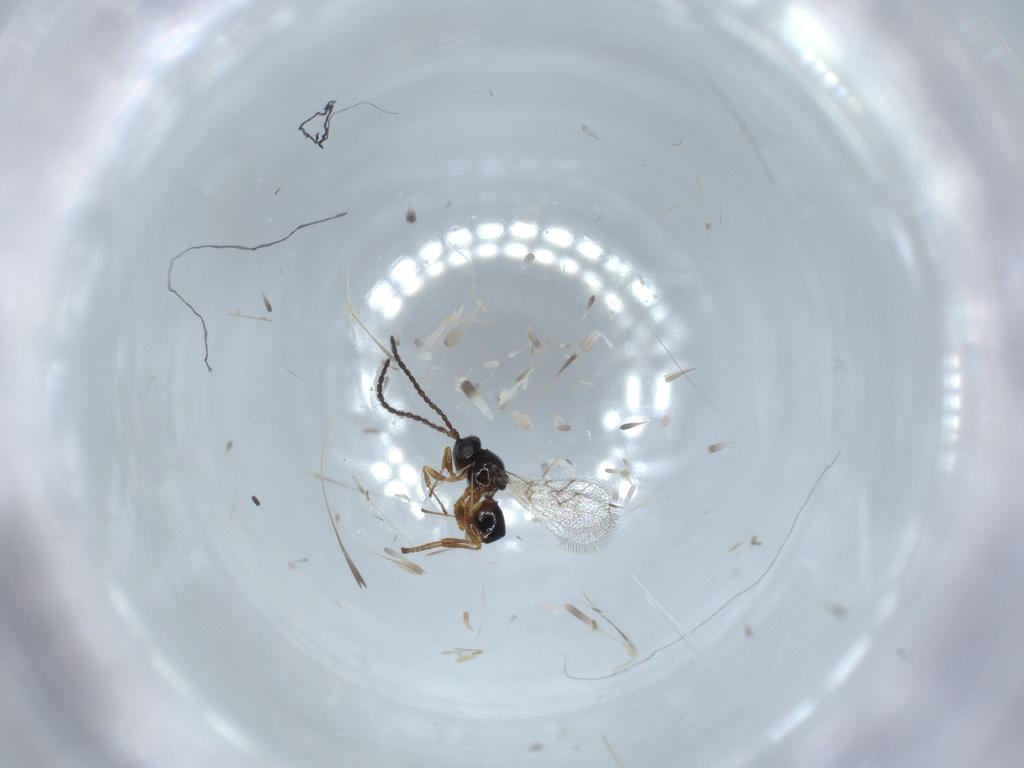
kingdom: Animalia
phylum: Arthropoda
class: Insecta
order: Hymenoptera
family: Figitidae
